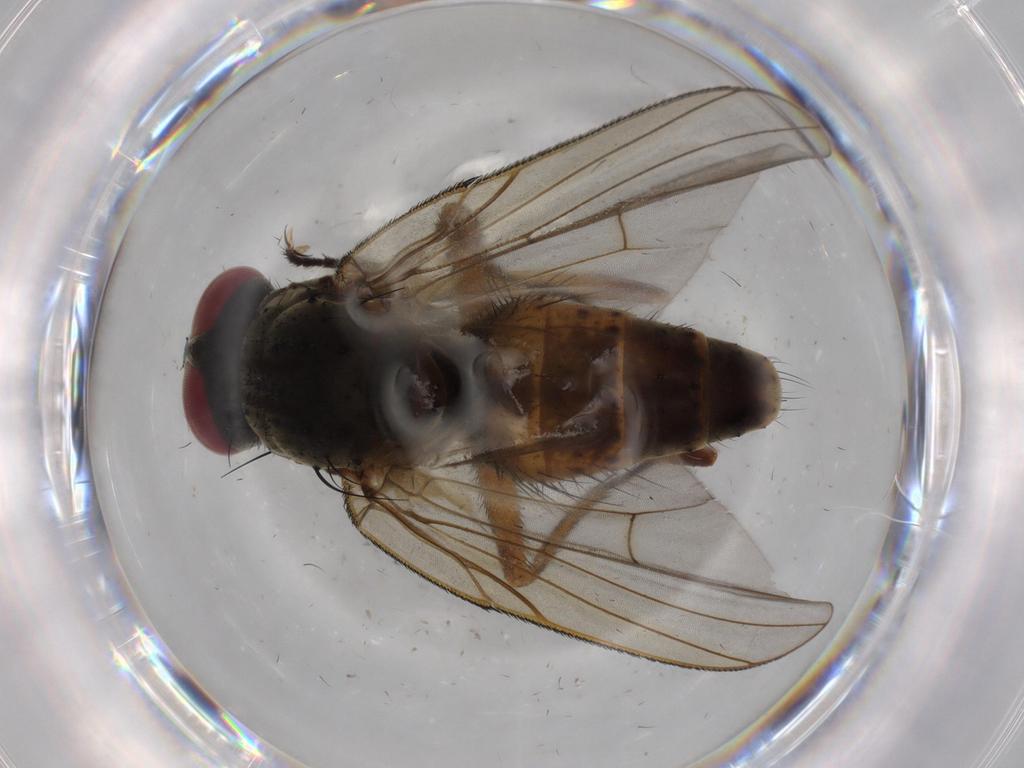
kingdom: Animalia
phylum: Arthropoda
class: Insecta
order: Diptera
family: Muscidae
